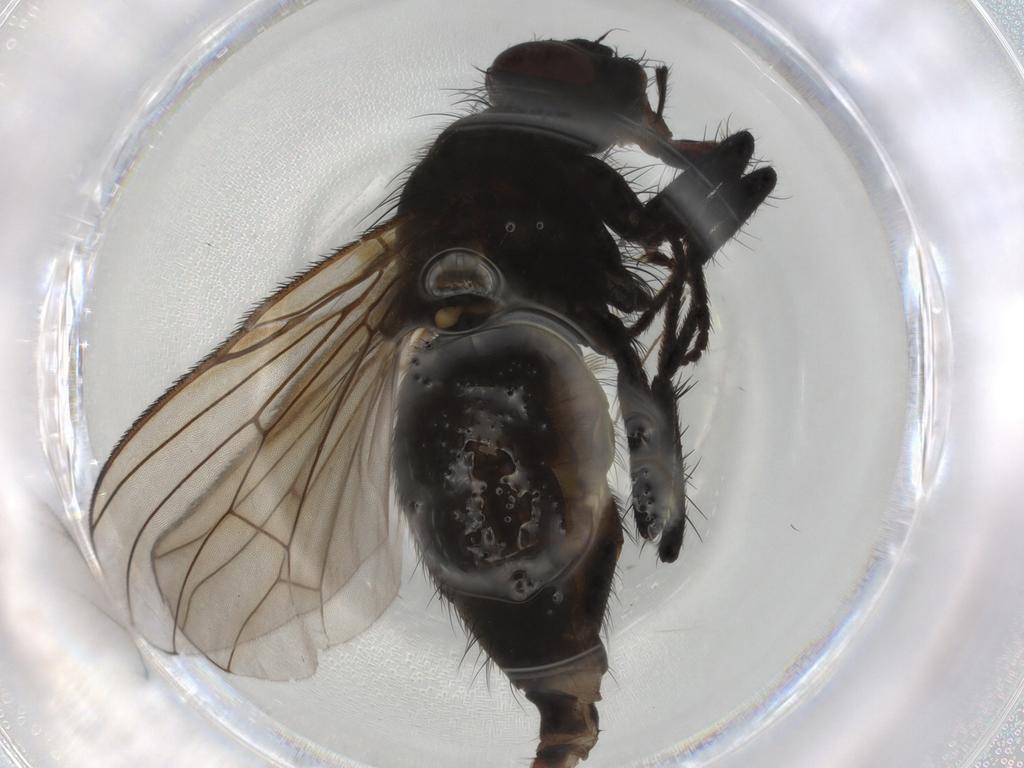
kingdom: Animalia
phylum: Arthropoda
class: Insecta
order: Diptera
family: Muscidae
